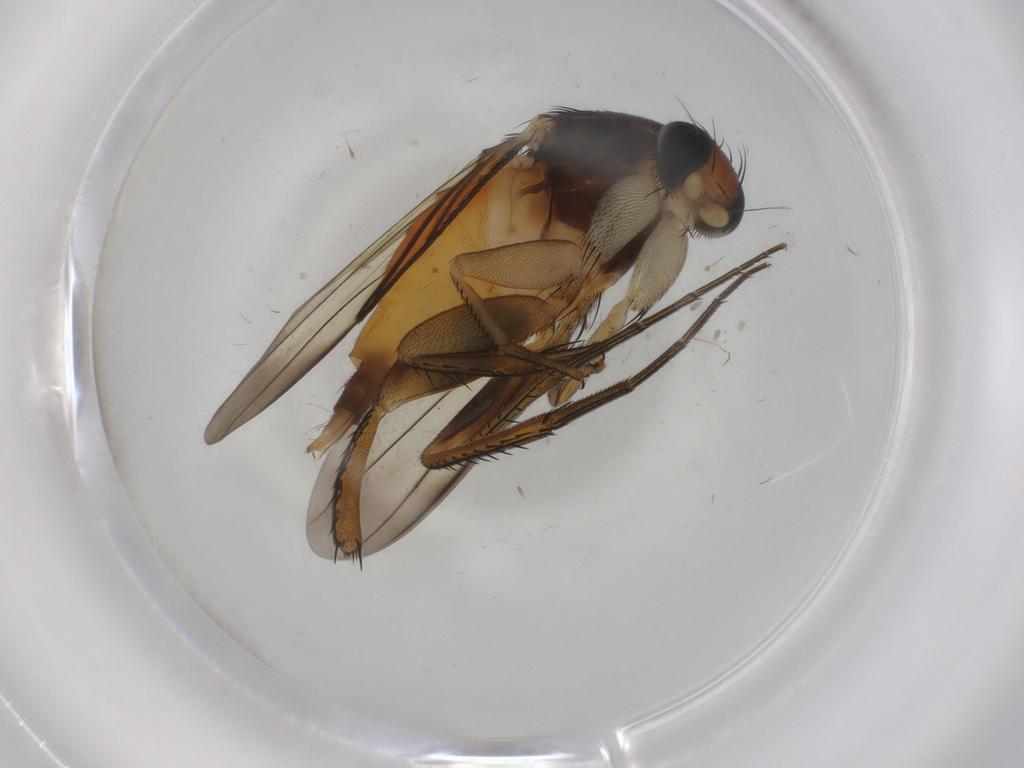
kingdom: Animalia
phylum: Arthropoda
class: Insecta
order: Diptera
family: Phoridae
